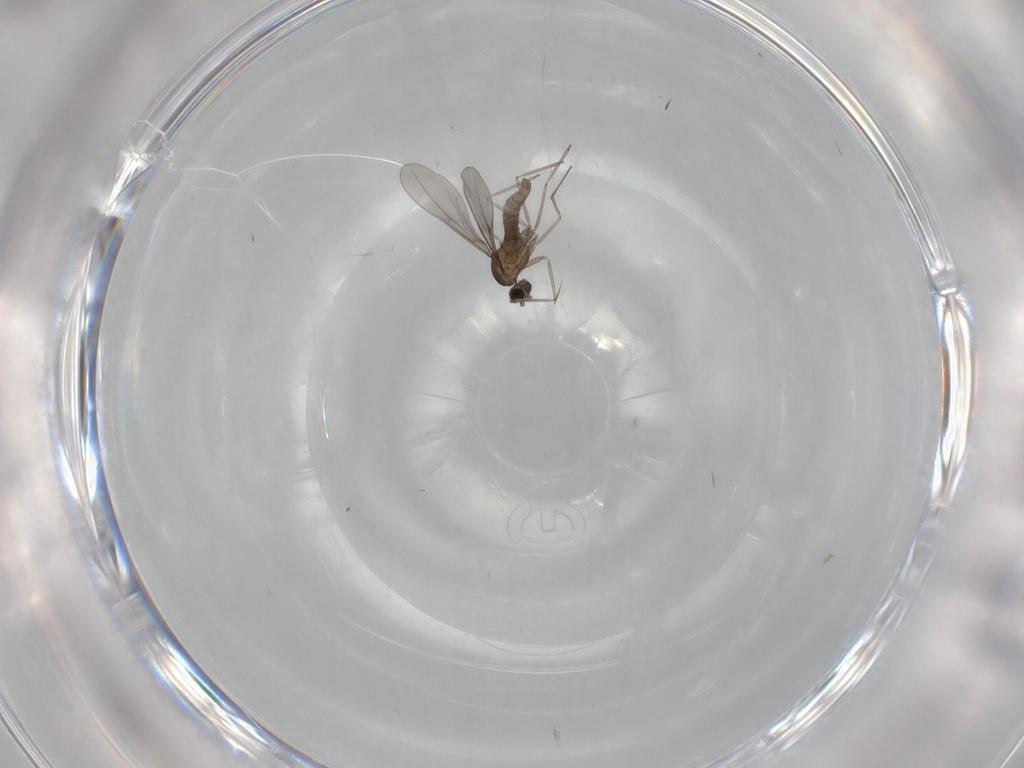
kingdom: Animalia
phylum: Arthropoda
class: Insecta
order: Diptera
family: Cecidomyiidae
